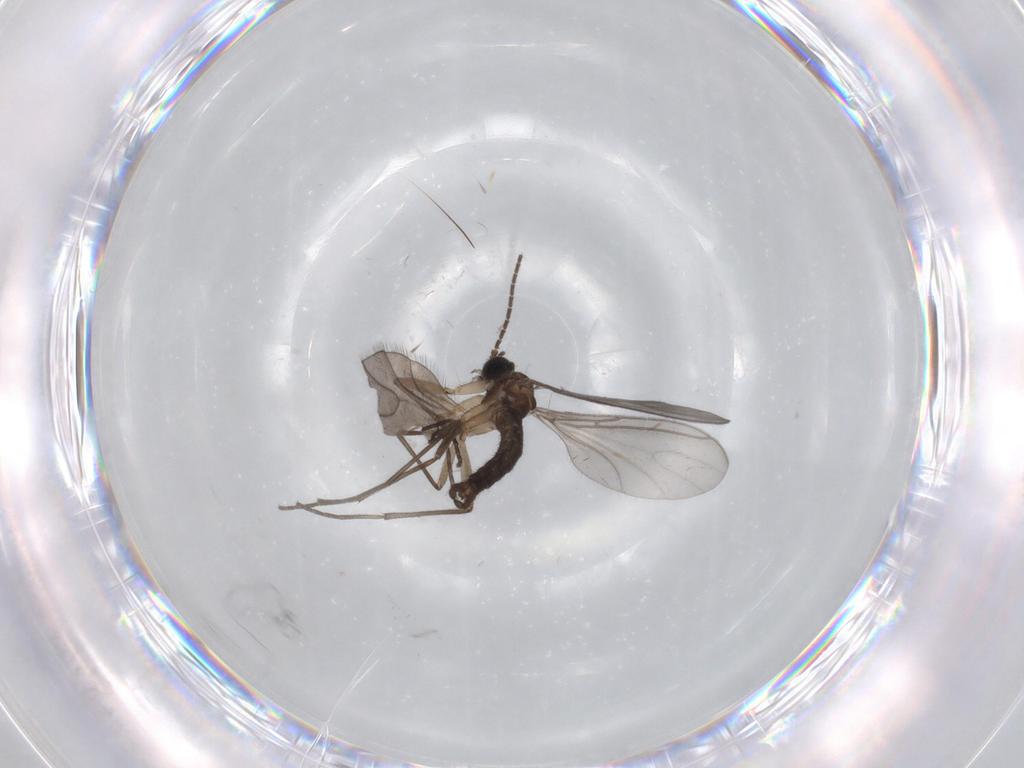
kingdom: Animalia
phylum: Arthropoda
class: Insecta
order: Diptera
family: Sciaridae
